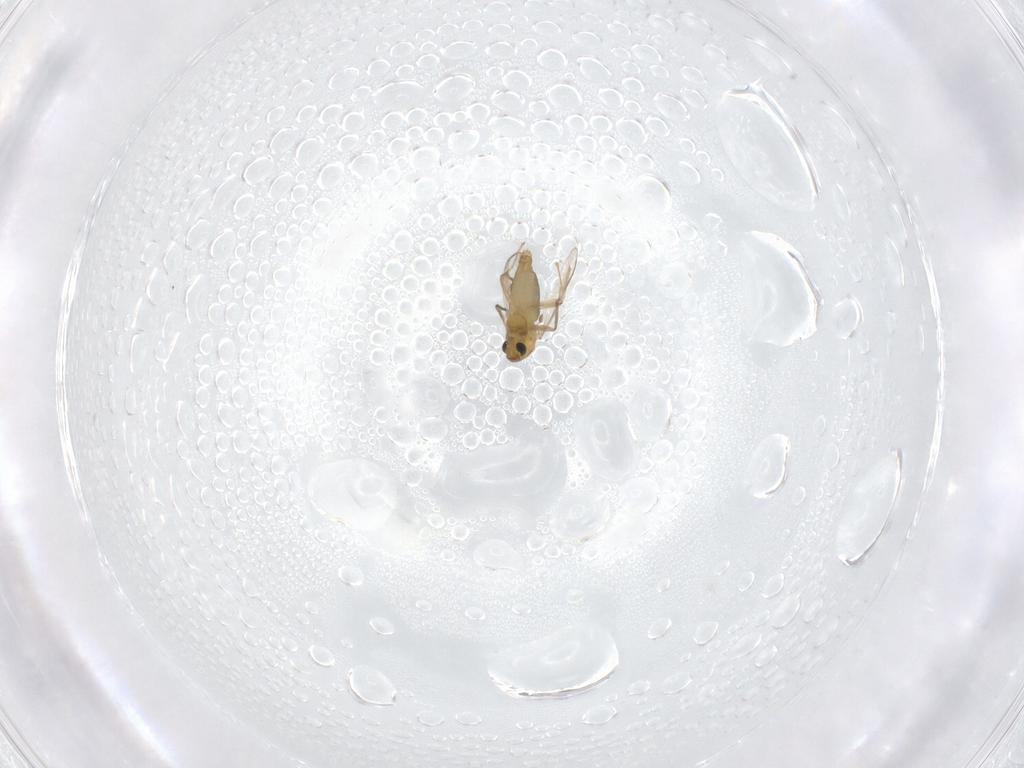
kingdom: Animalia
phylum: Arthropoda
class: Insecta
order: Diptera
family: Chironomidae
